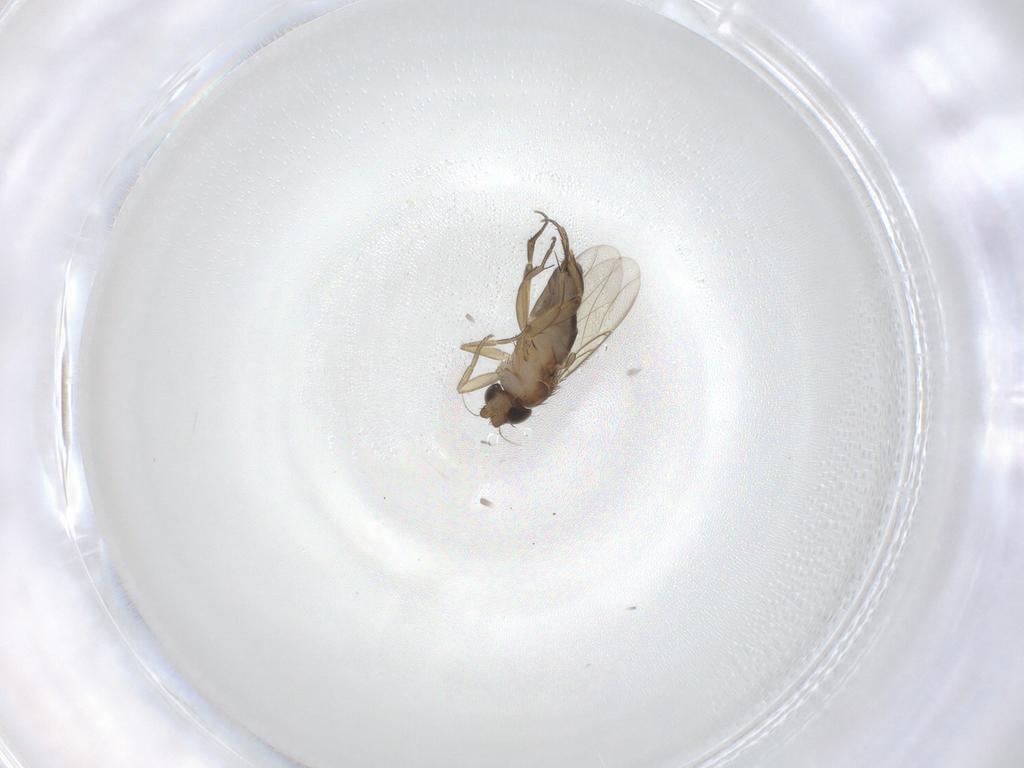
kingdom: Animalia
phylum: Arthropoda
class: Insecta
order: Diptera
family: Phoridae
